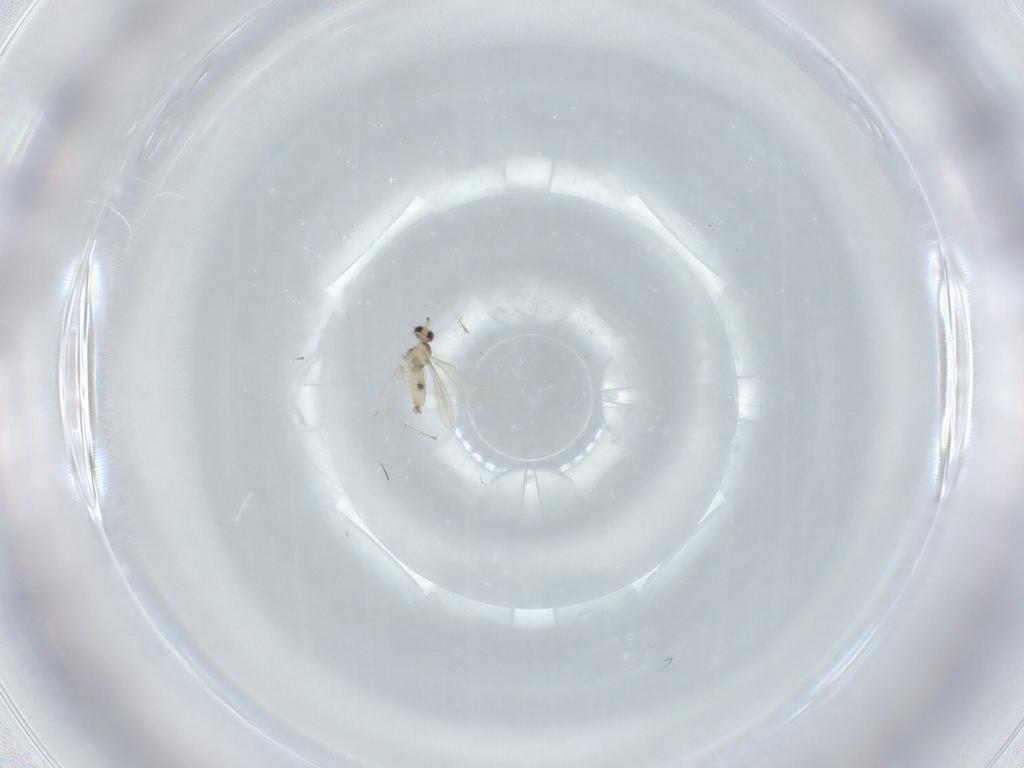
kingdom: Animalia
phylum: Arthropoda
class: Insecta
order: Diptera
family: Cecidomyiidae
